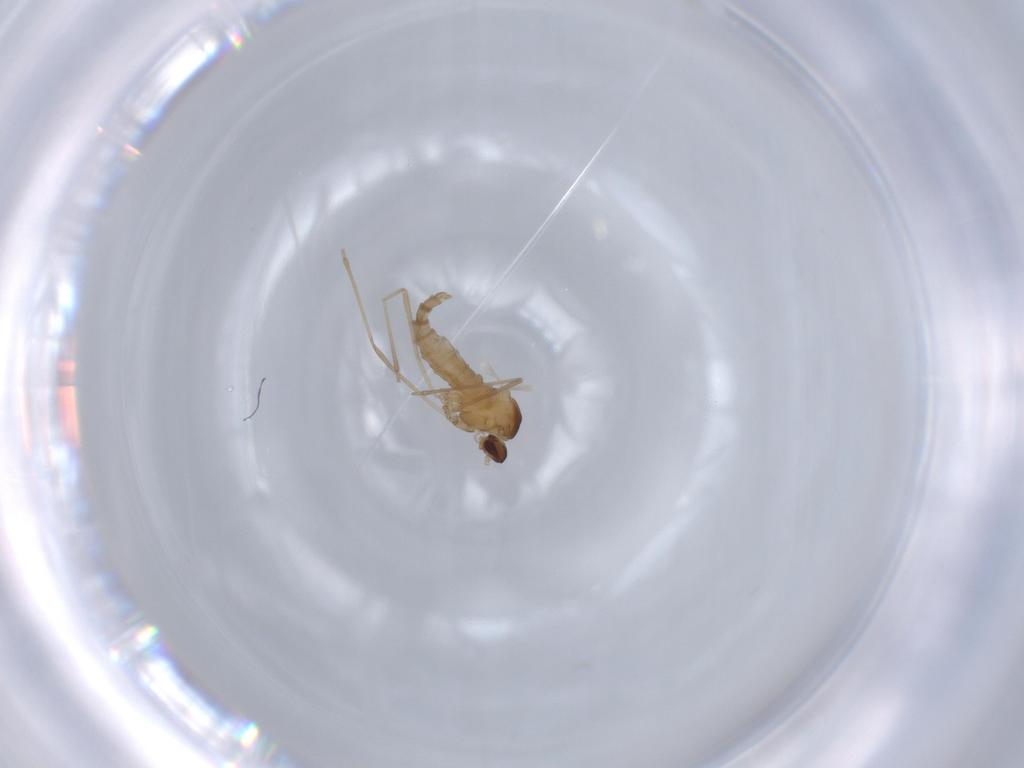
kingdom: Animalia
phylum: Arthropoda
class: Insecta
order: Diptera
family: Cecidomyiidae
